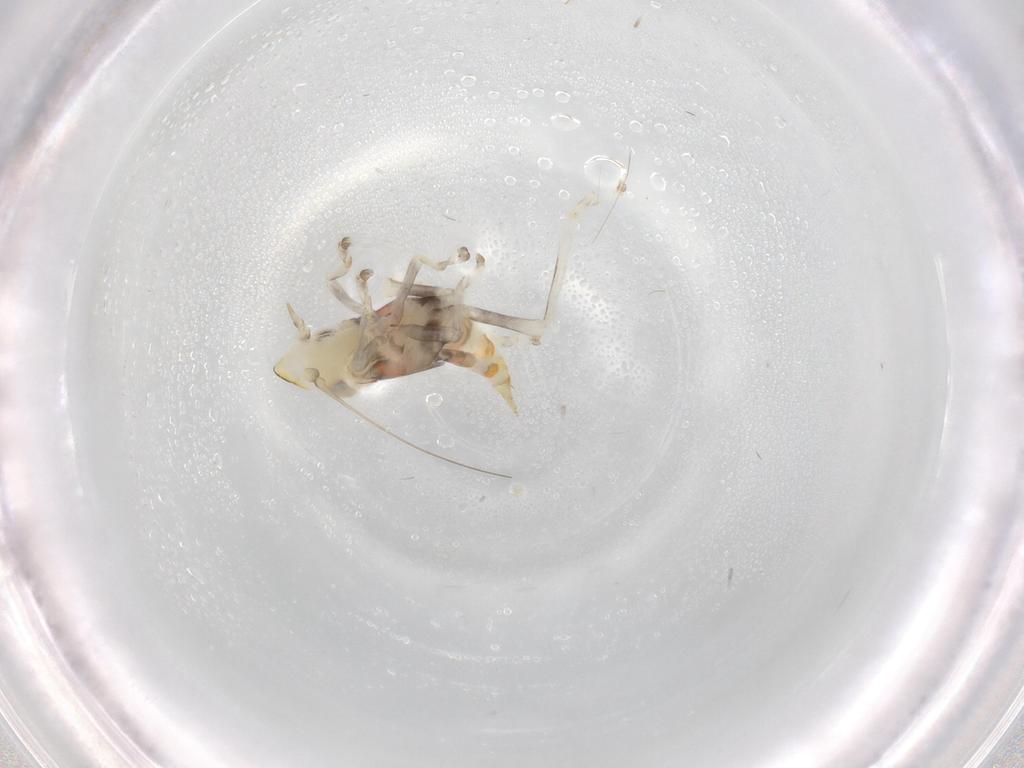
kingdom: Animalia
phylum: Arthropoda
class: Insecta
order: Hemiptera
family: Cicadellidae
